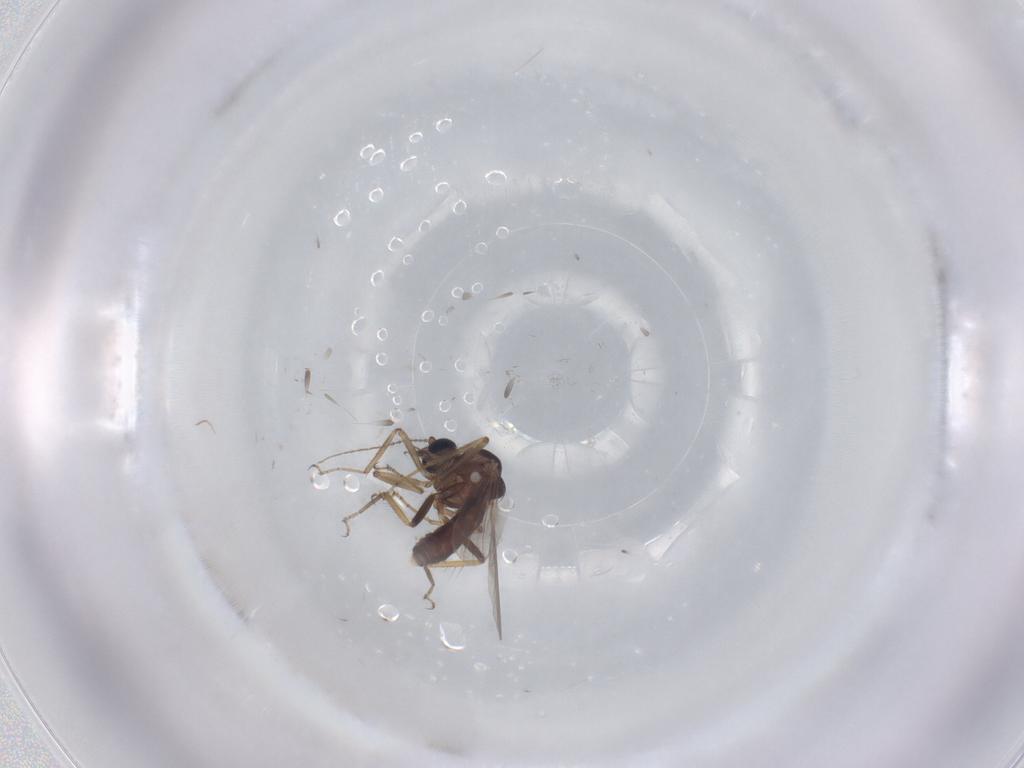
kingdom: Animalia
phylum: Arthropoda
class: Insecta
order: Diptera
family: Ceratopogonidae
